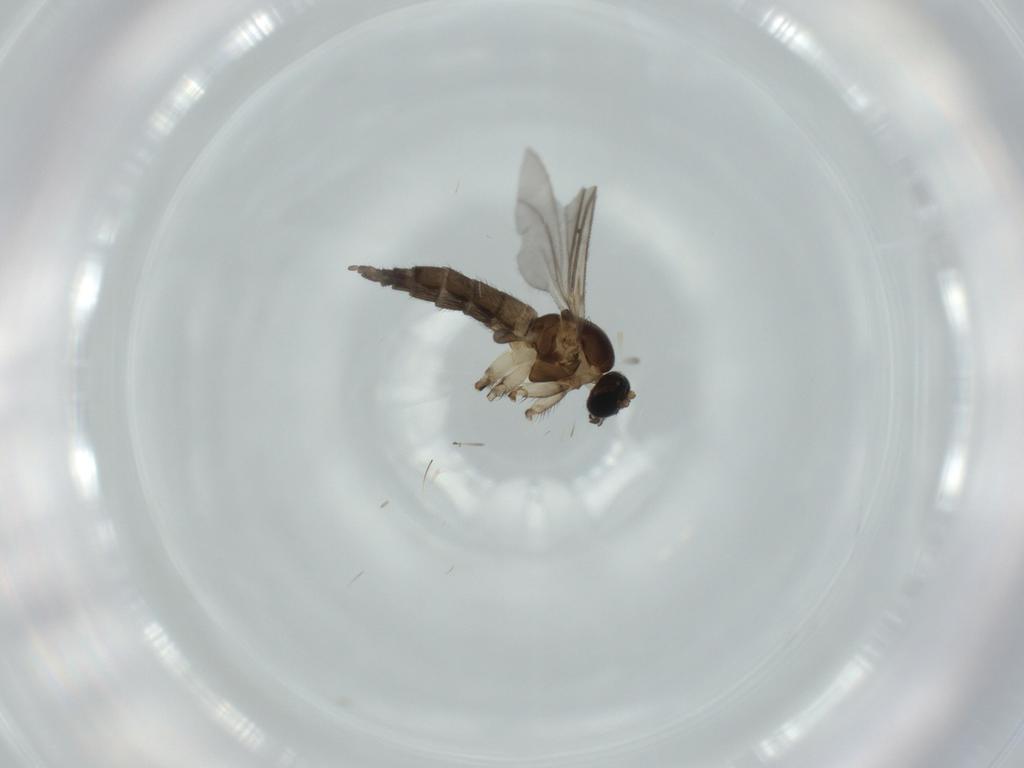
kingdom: Animalia
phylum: Arthropoda
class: Insecta
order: Diptera
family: Sciaridae
